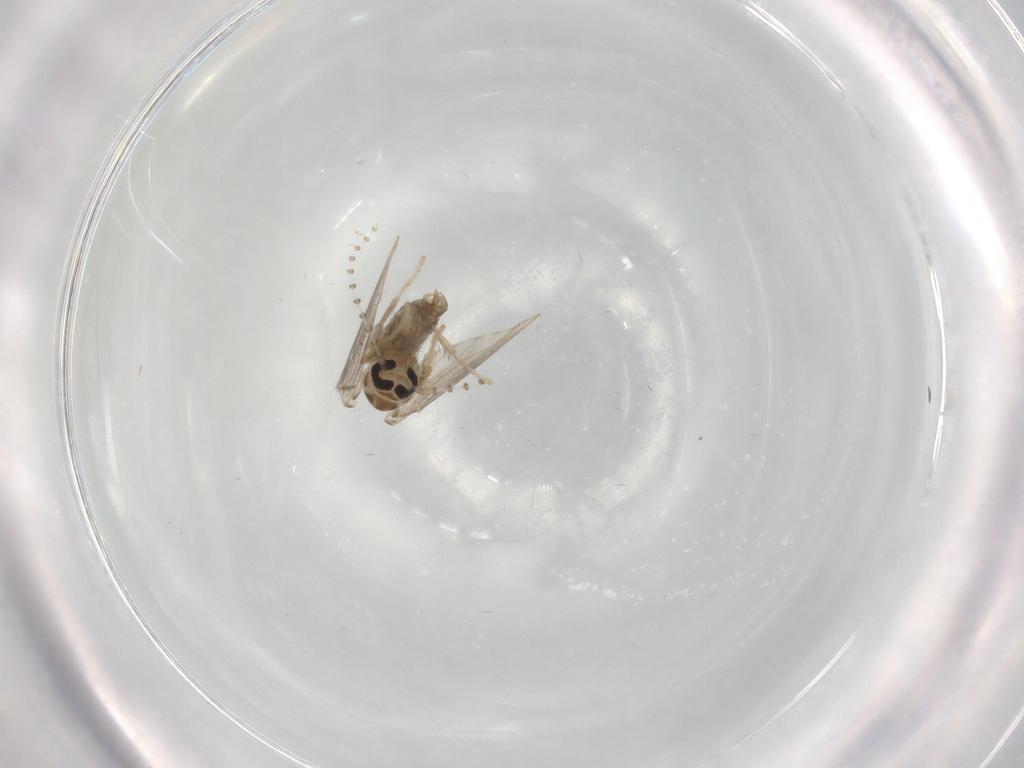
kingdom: Animalia
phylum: Arthropoda
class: Insecta
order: Diptera
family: Psychodidae
